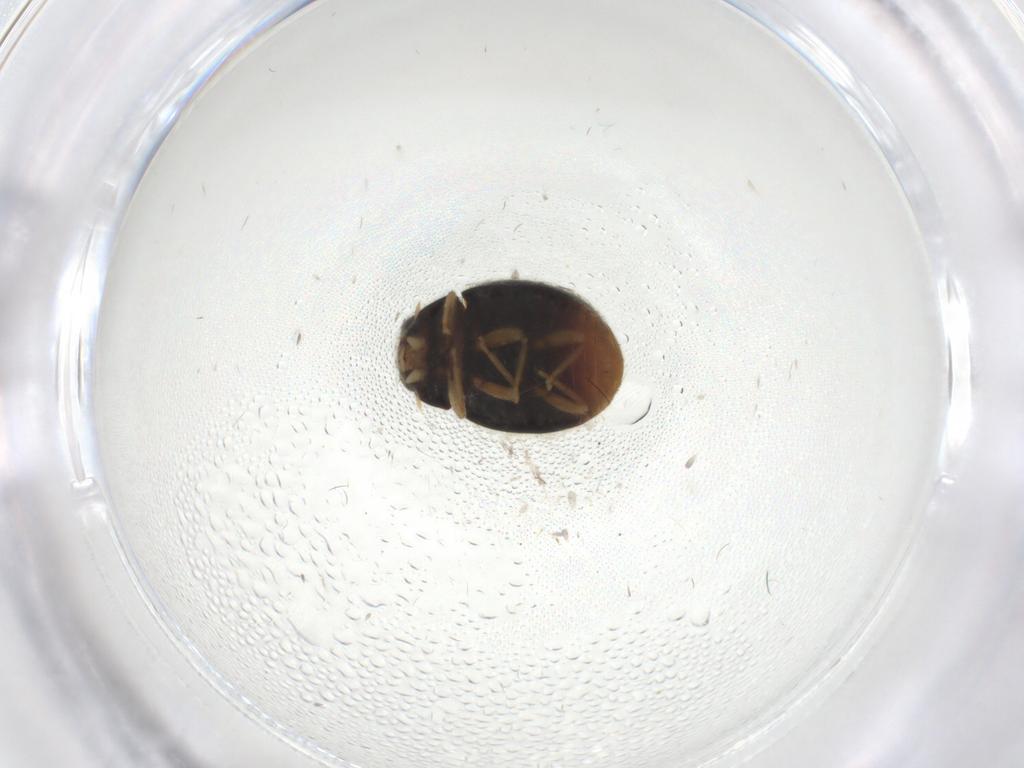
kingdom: Animalia
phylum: Arthropoda
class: Insecta
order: Coleoptera
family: Coccinellidae
